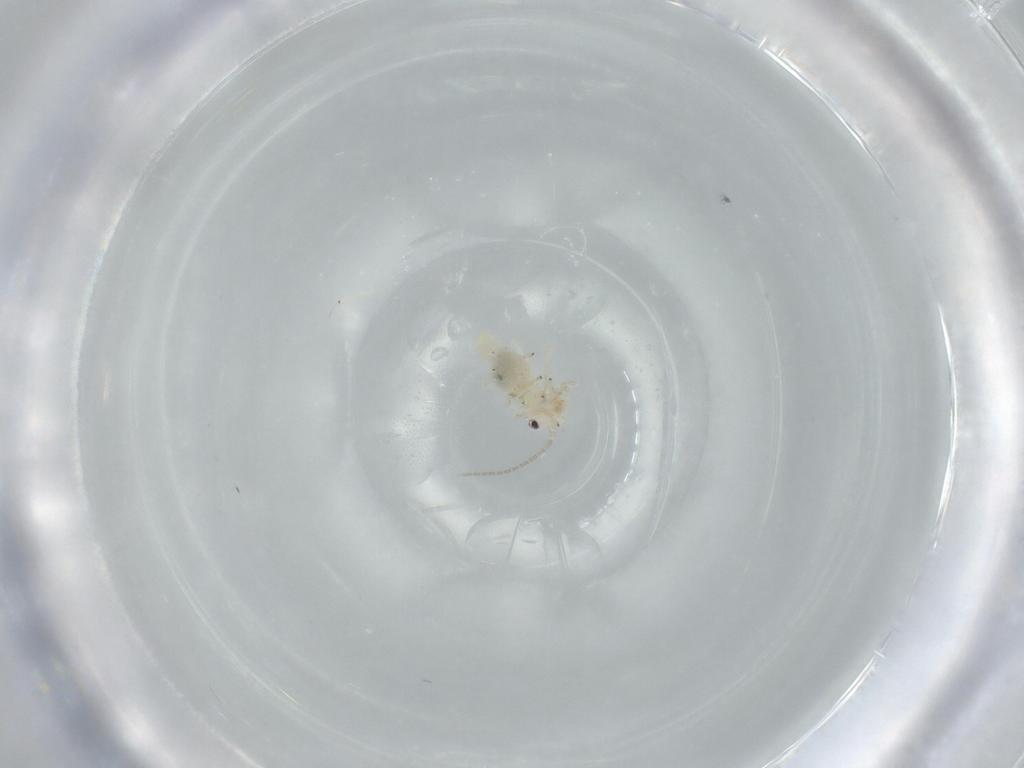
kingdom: Animalia
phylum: Arthropoda
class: Insecta
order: Psocodea
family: Caeciliusidae
